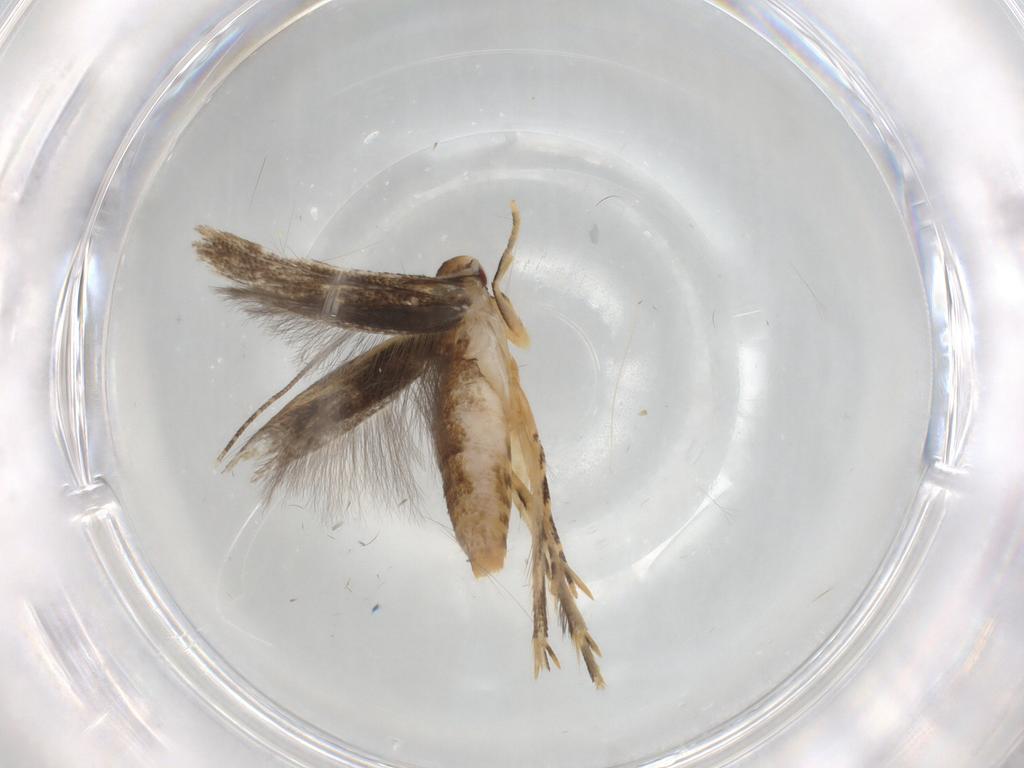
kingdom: Animalia
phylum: Arthropoda
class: Insecta
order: Lepidoptera
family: Momphidae
